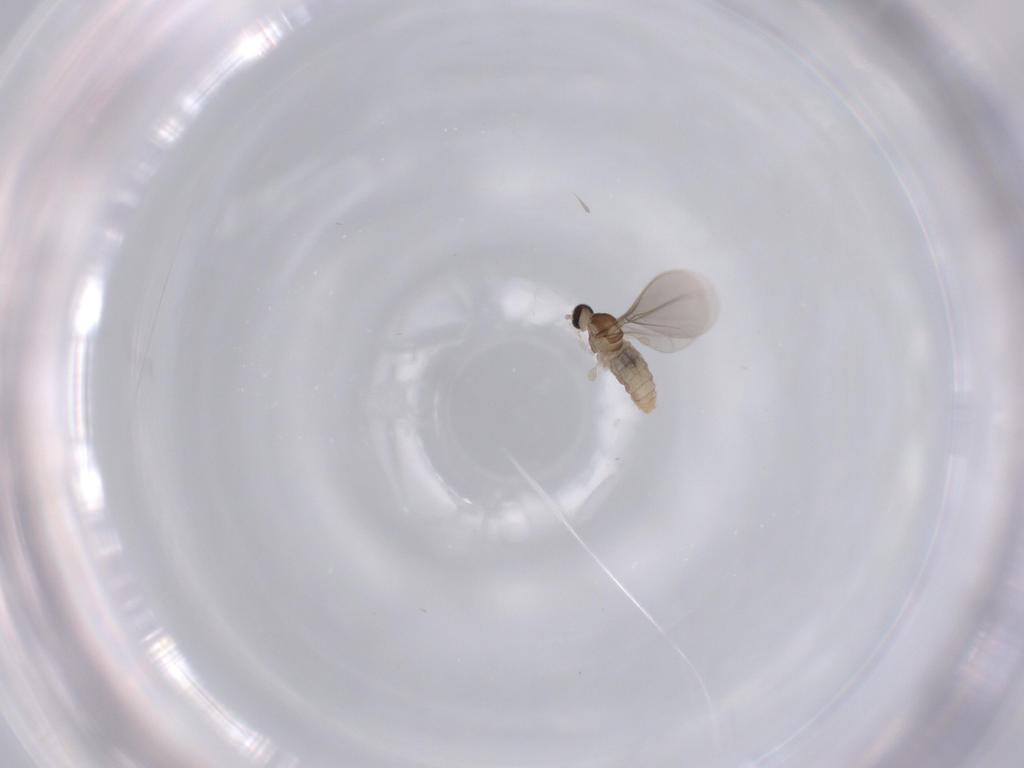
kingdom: Animalia
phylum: Arthropoda
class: Insecta
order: Diptera
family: Cecidomyiidae
